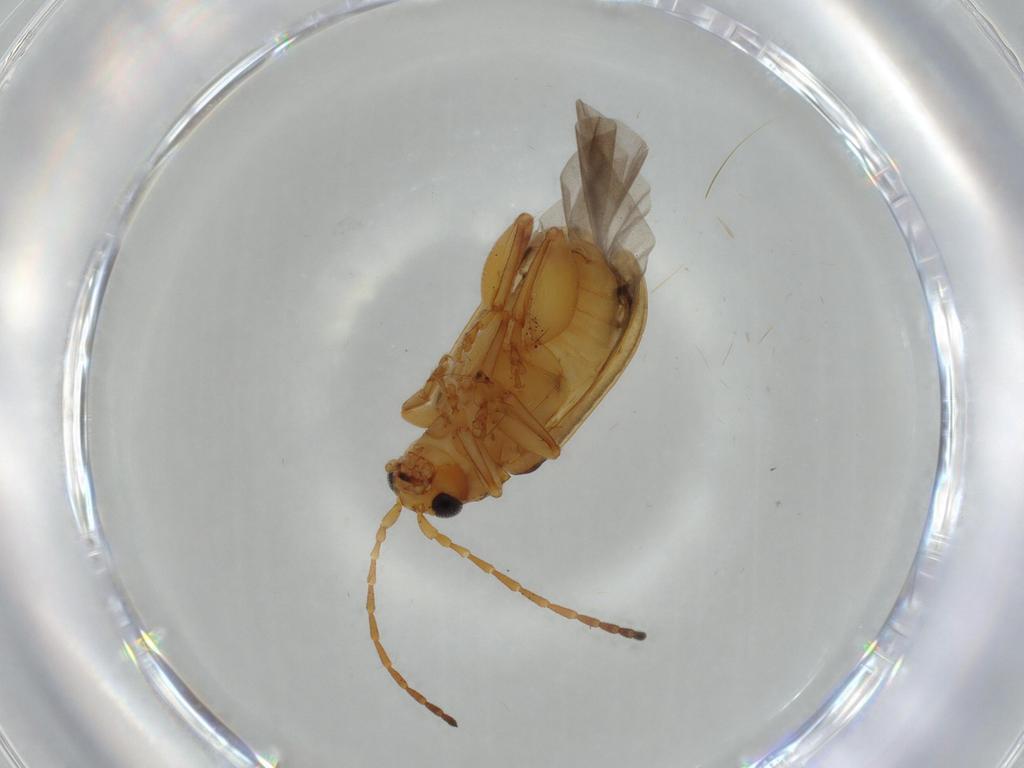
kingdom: Animalia
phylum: Arthropoda
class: Insecta
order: Coleoptera
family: Chrysomelidae
